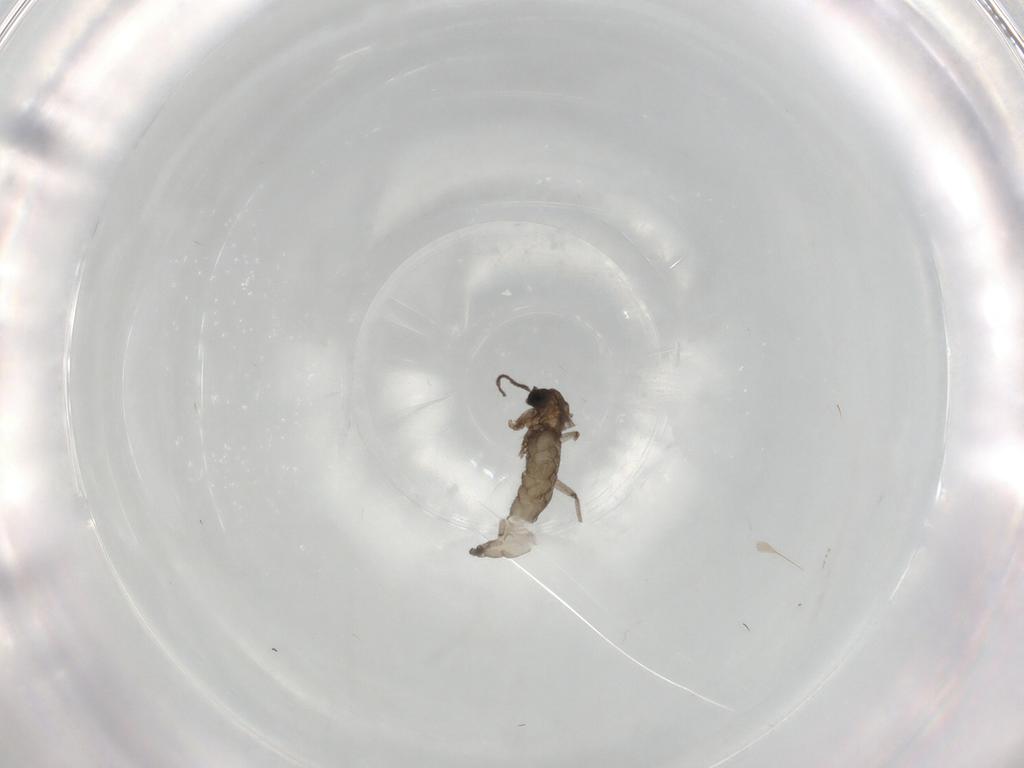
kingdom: Animalia
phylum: Arthropoda
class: Insecta
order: Diptera
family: Sciaridae
